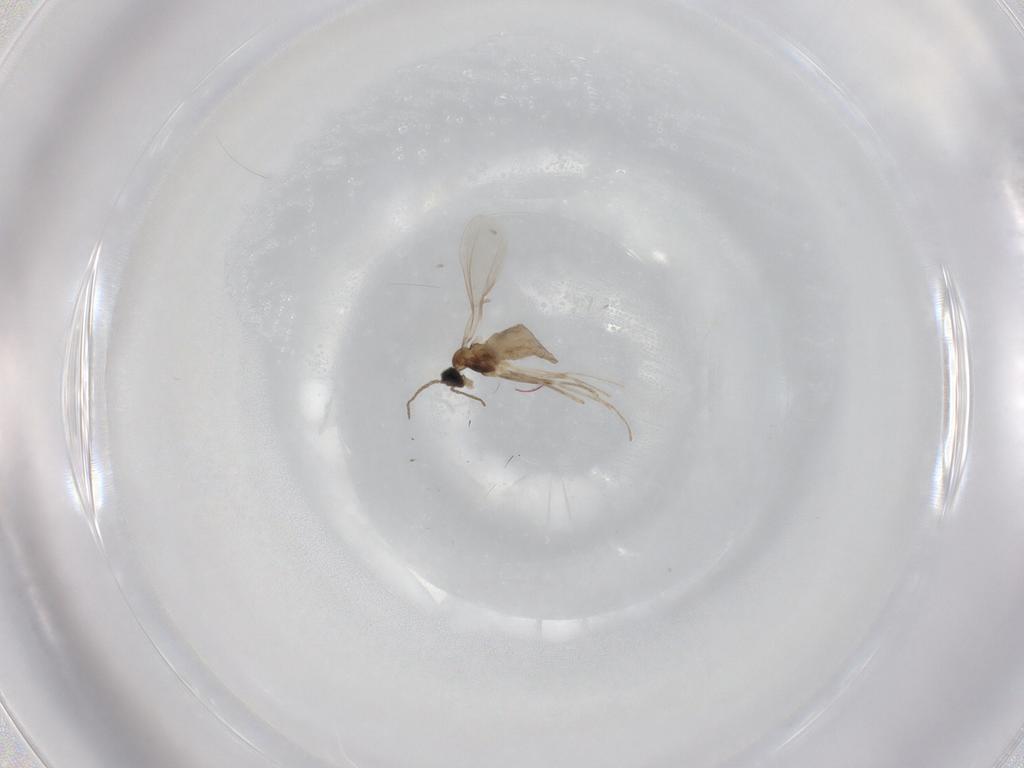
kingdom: Animalia
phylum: Arthropoda
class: Insecta
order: Diptera
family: Cecidomyiidae
